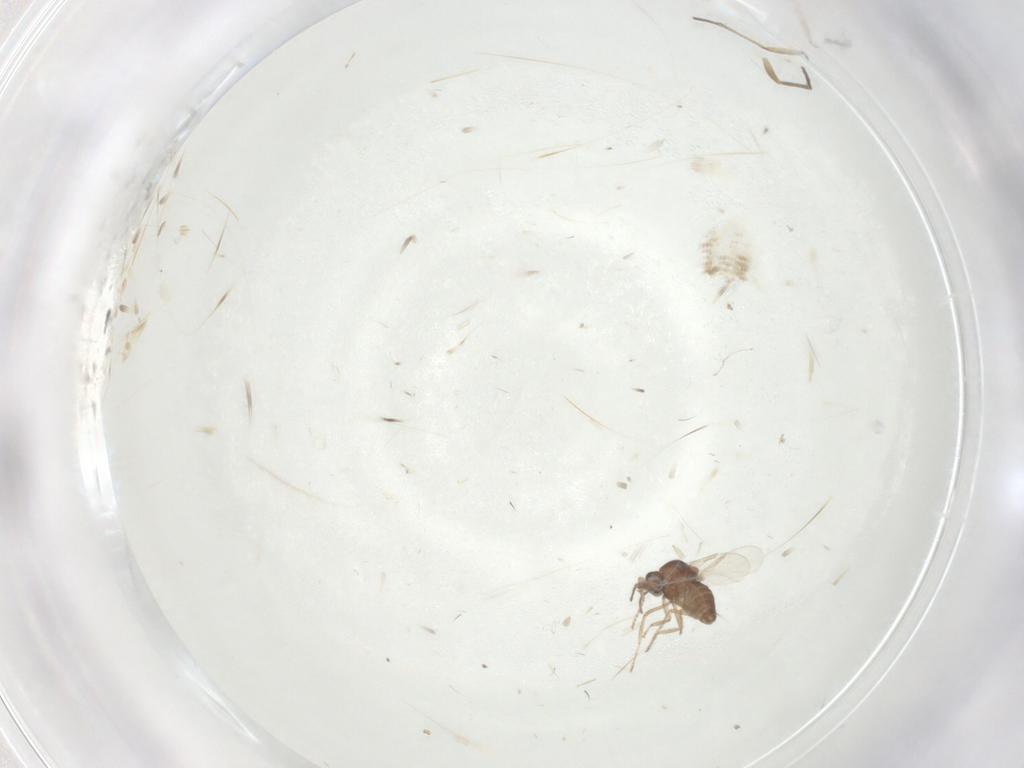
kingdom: Animalia
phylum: Arthropoda
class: Insecta
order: Diptera
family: Ceratopogonidae
